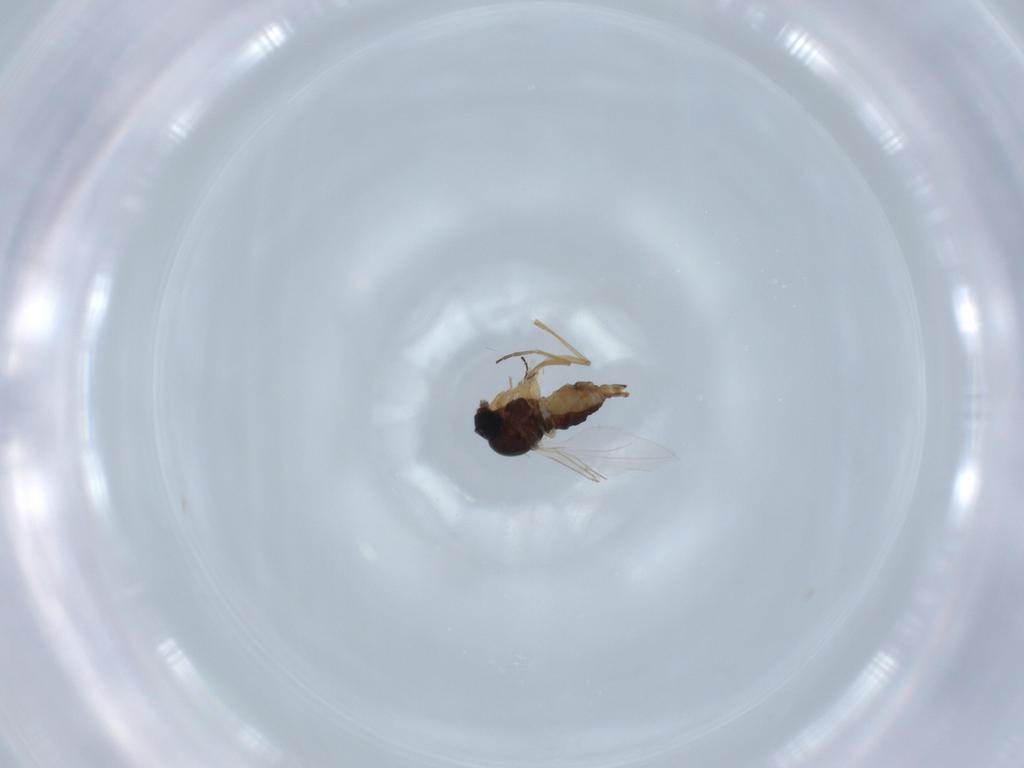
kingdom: Animalia
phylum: Arthropoda
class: Insecta
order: Diptera
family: Sciaridae
